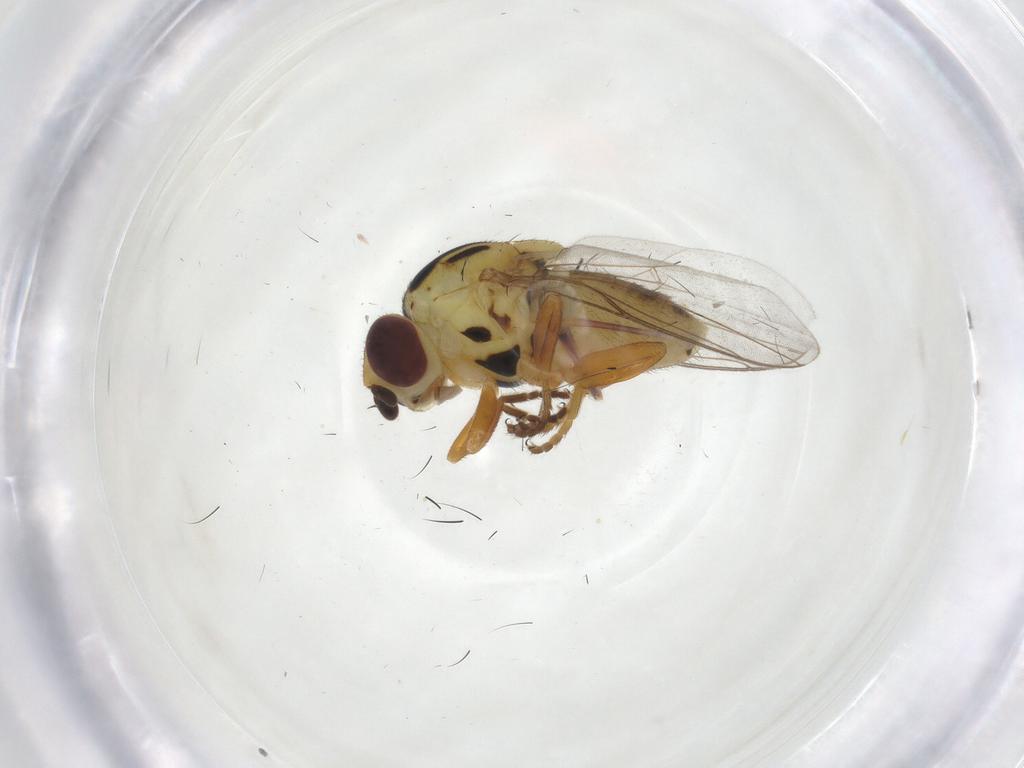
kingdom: Animalia
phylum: Arthropoda
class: Insecta
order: Diptera
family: Chloropidae
